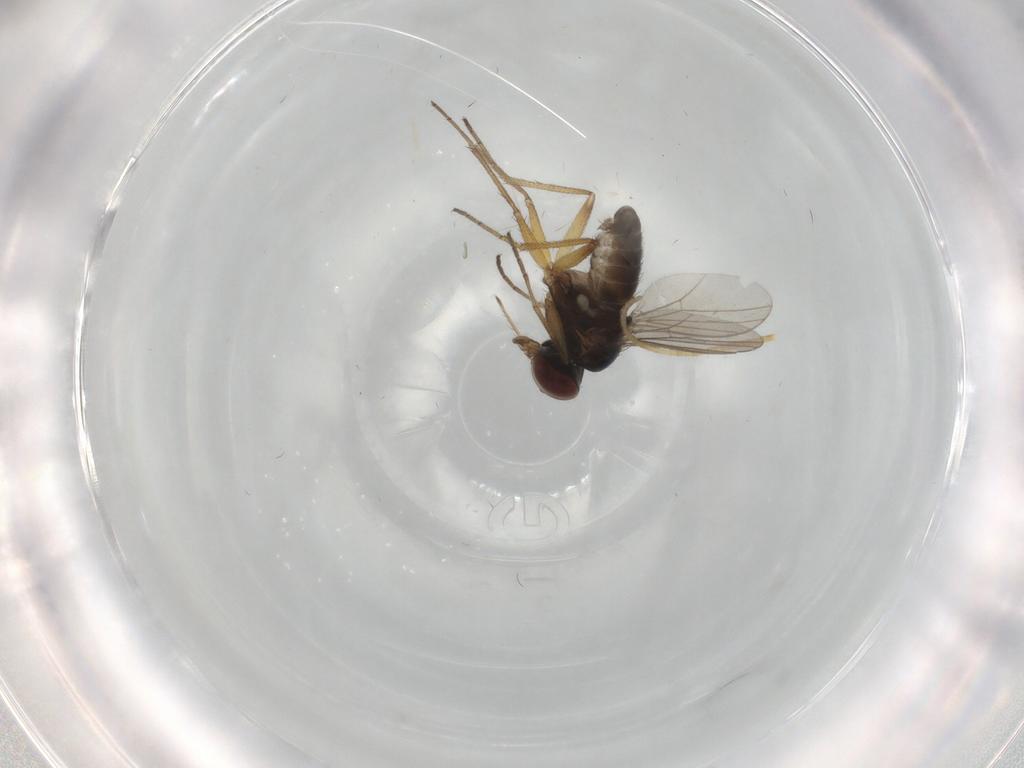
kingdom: Animalia
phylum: Arthropoda
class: Insecta
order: Diptera
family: Dolichopodidae
